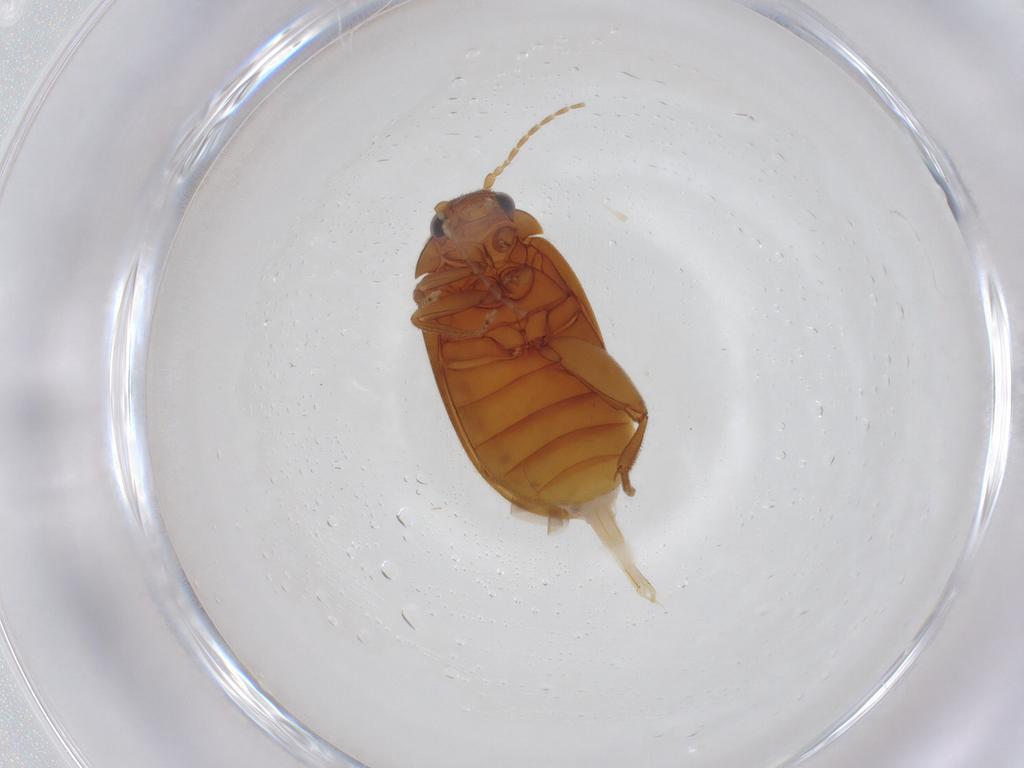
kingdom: Animalia
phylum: Arthropoda
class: Insecta
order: Coleoptera
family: Scirtidae
